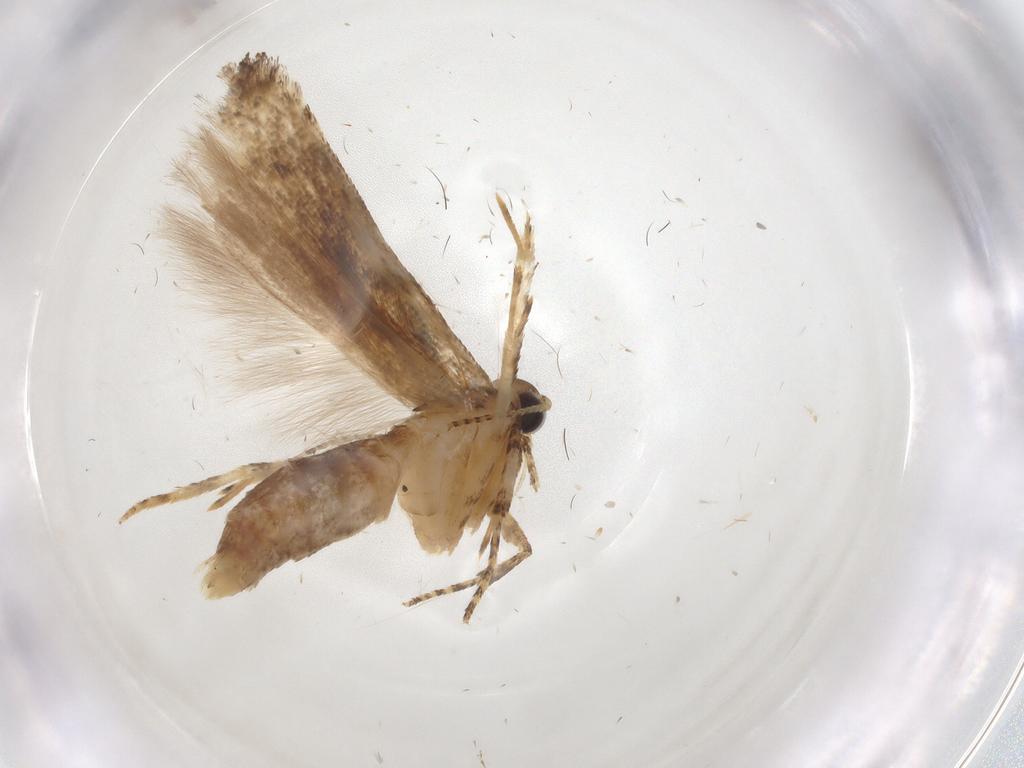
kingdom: Animalia
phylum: Arthropoda
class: Insecta
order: Lepidoptera
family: Gelechiidae
